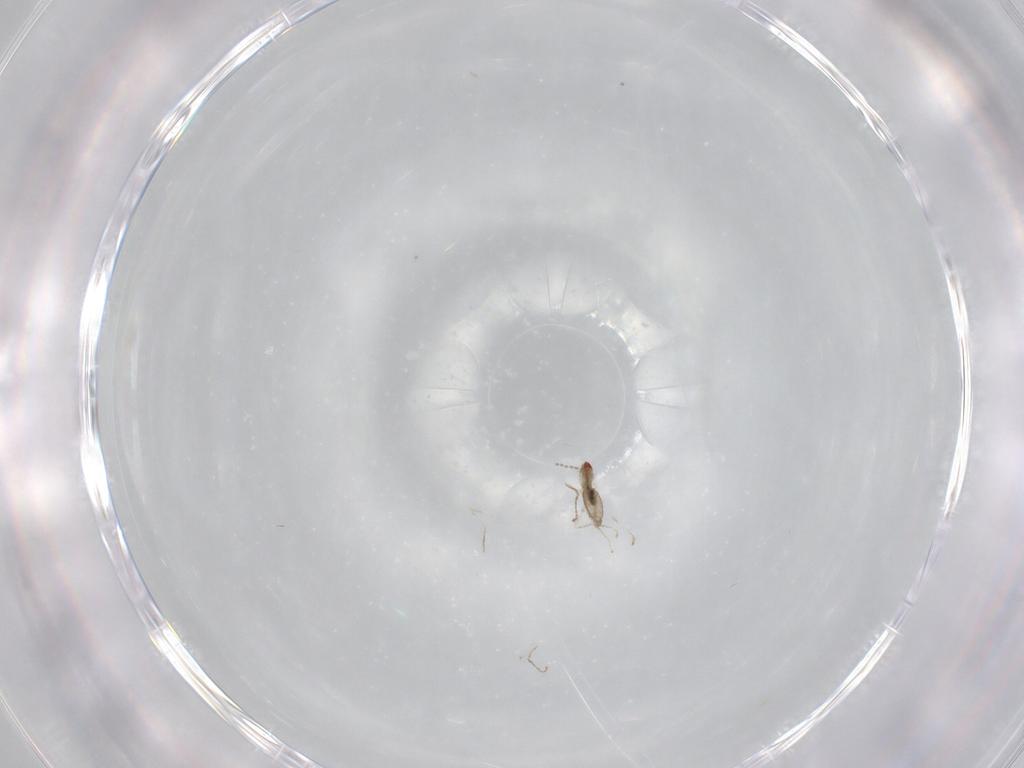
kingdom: Animalia
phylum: Arthropoda
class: Insecta
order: Diptera
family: Cecidomyiidae
